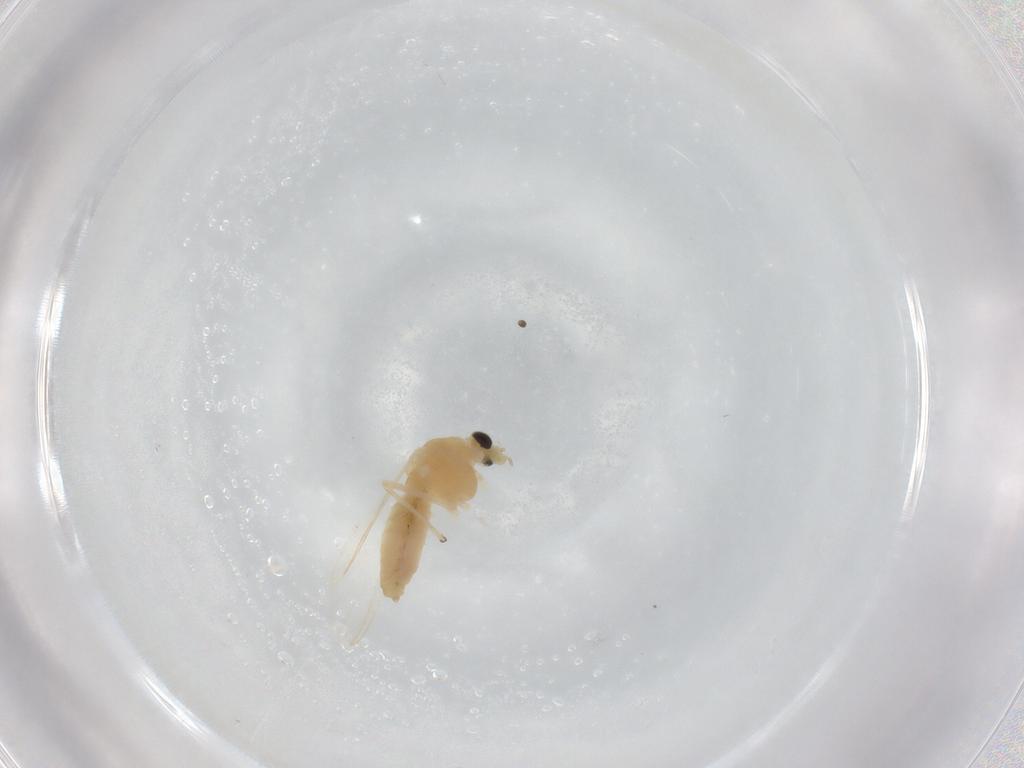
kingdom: Animalia
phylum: Arthropoda
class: Insecta
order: Diptera
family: Chironomidae
